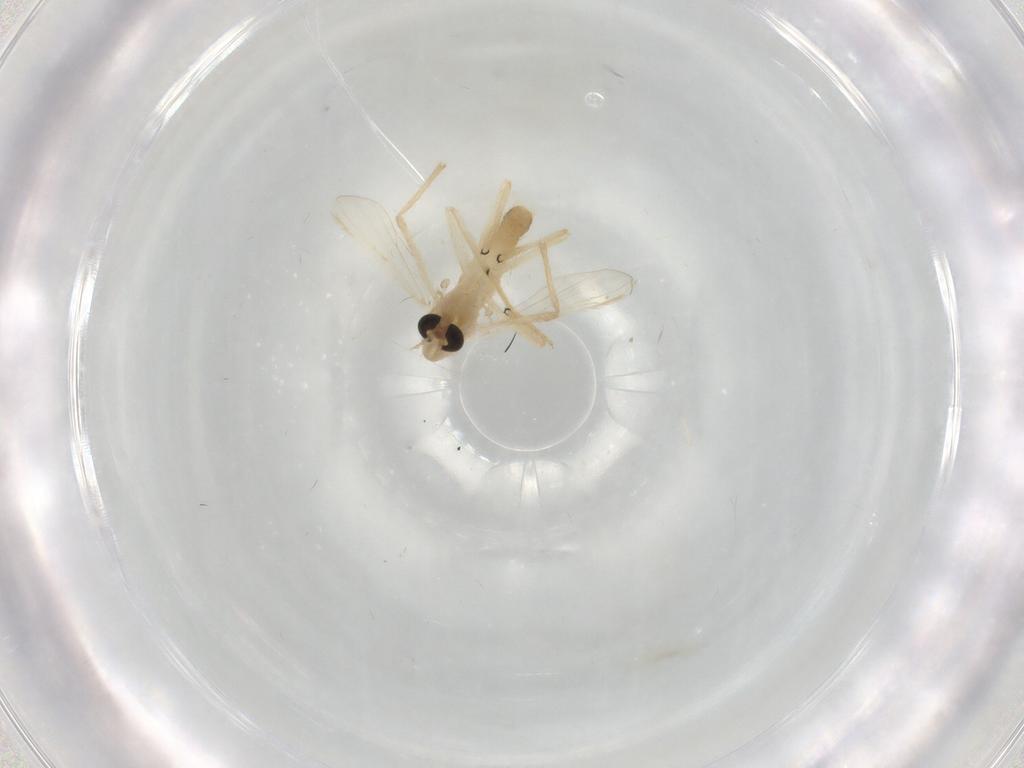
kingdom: Animalia
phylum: Arthropoda
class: Insecta
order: Diptera
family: Chironomidae
